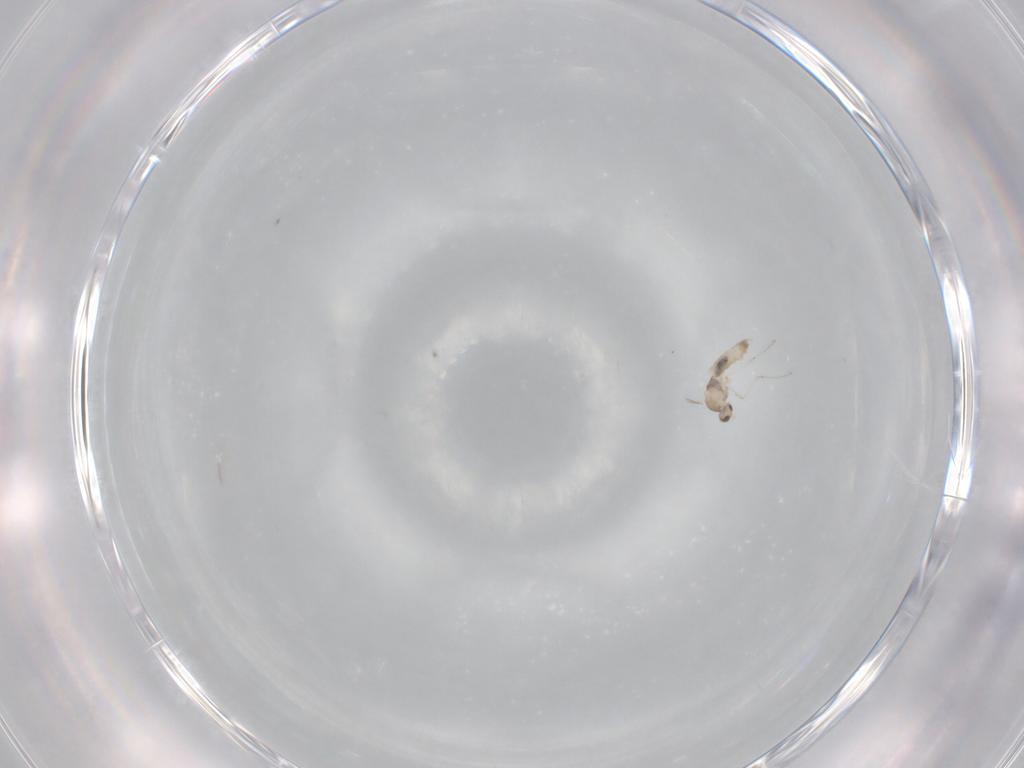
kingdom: Animalia
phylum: Arthropoda
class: Insecta
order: Diptera
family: Cecidomyiidae
